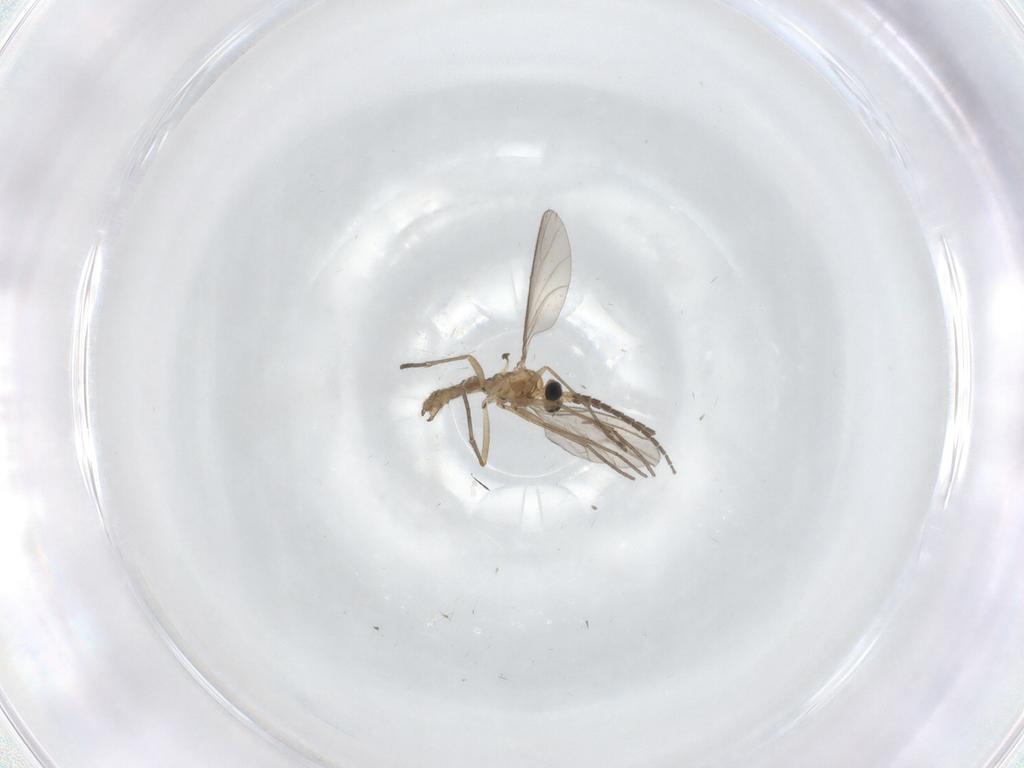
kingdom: Animalia
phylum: Arthropoda
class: Insecta
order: Diptera
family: Sciaridae
